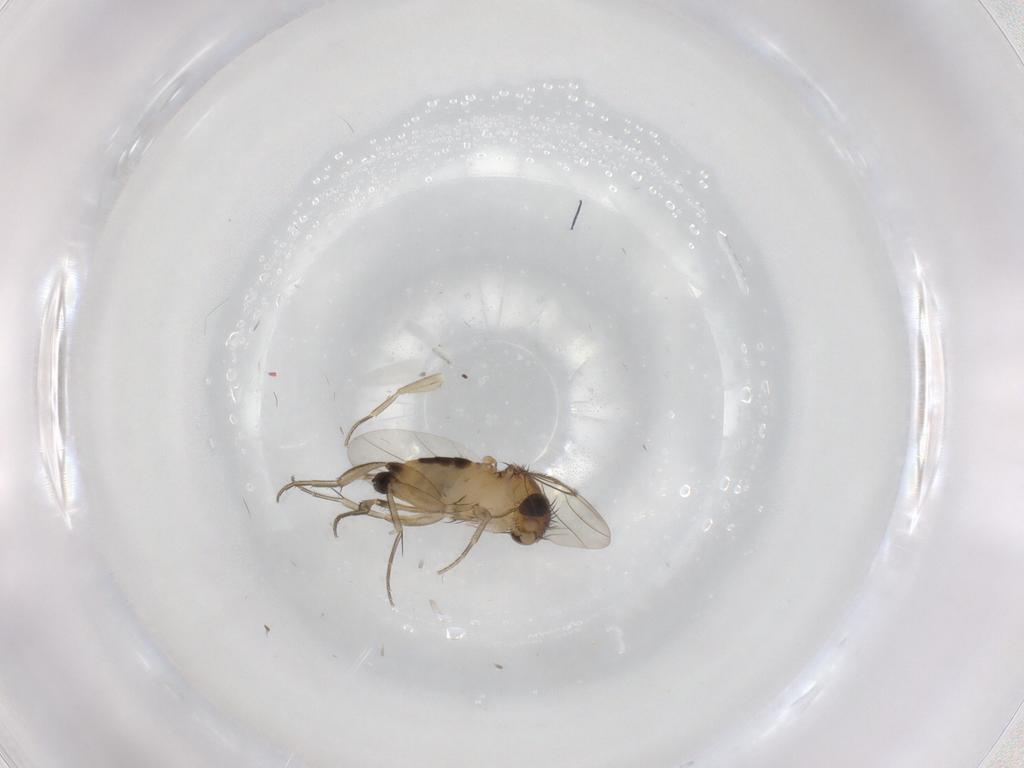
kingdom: Animalia
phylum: Arthropoda
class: Insecta
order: Diptera
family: Phoridae
